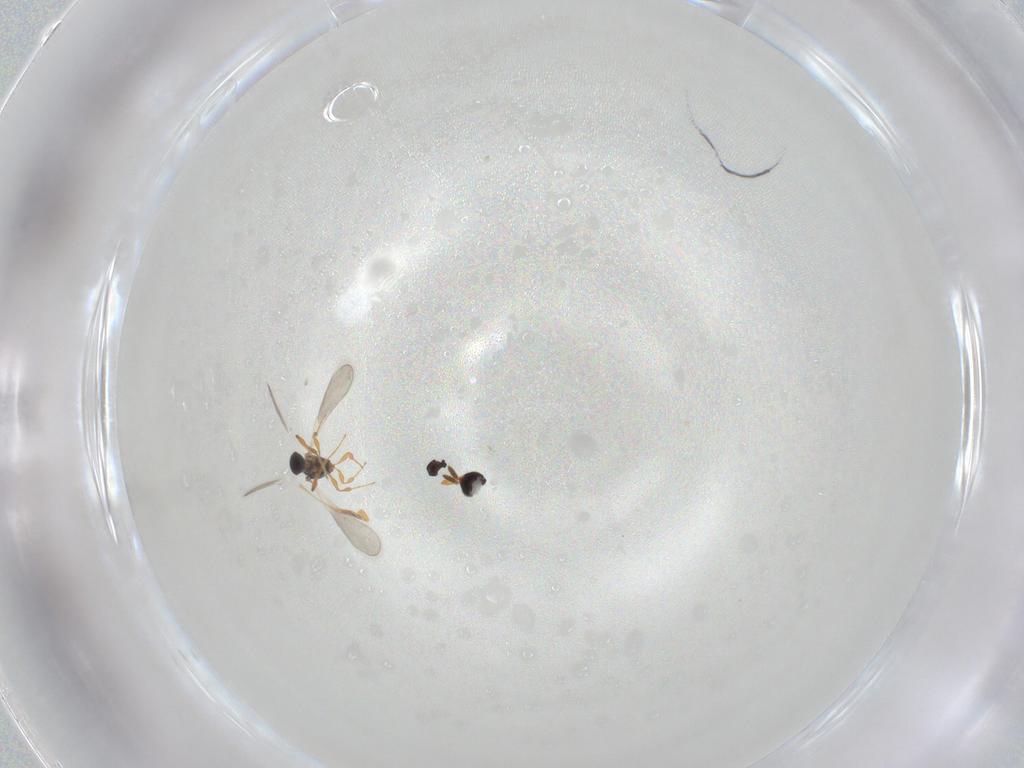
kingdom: Animalia
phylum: Arthropoda
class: Insecta
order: Hymenoptera
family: Platygastridae
